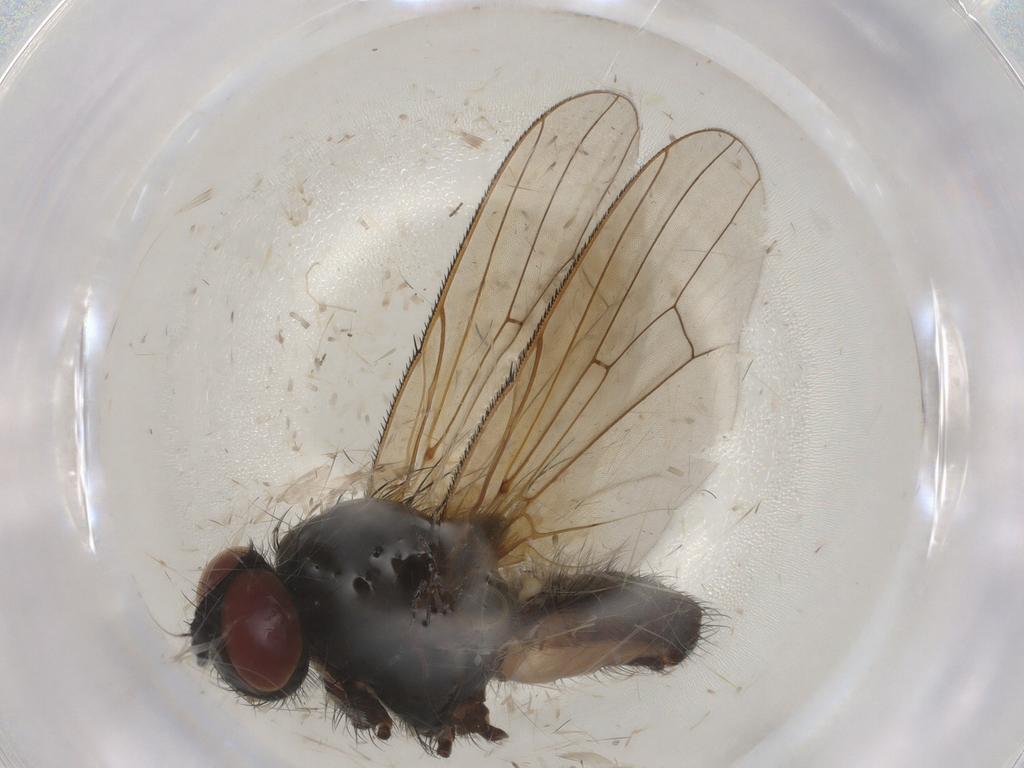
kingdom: Animalia
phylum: Arthropoda
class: Insecta
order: Diptera
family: Anthomyiidae
